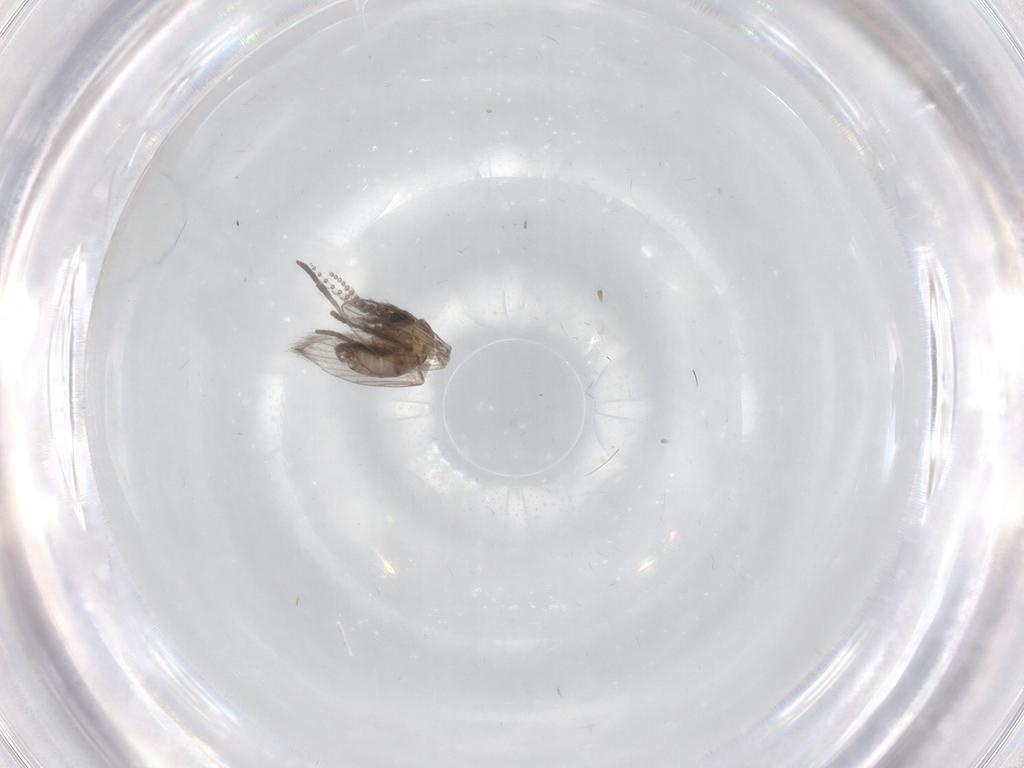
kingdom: Animalia
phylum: Arthropoda
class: Insecta
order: Diptera
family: Psychodidae
